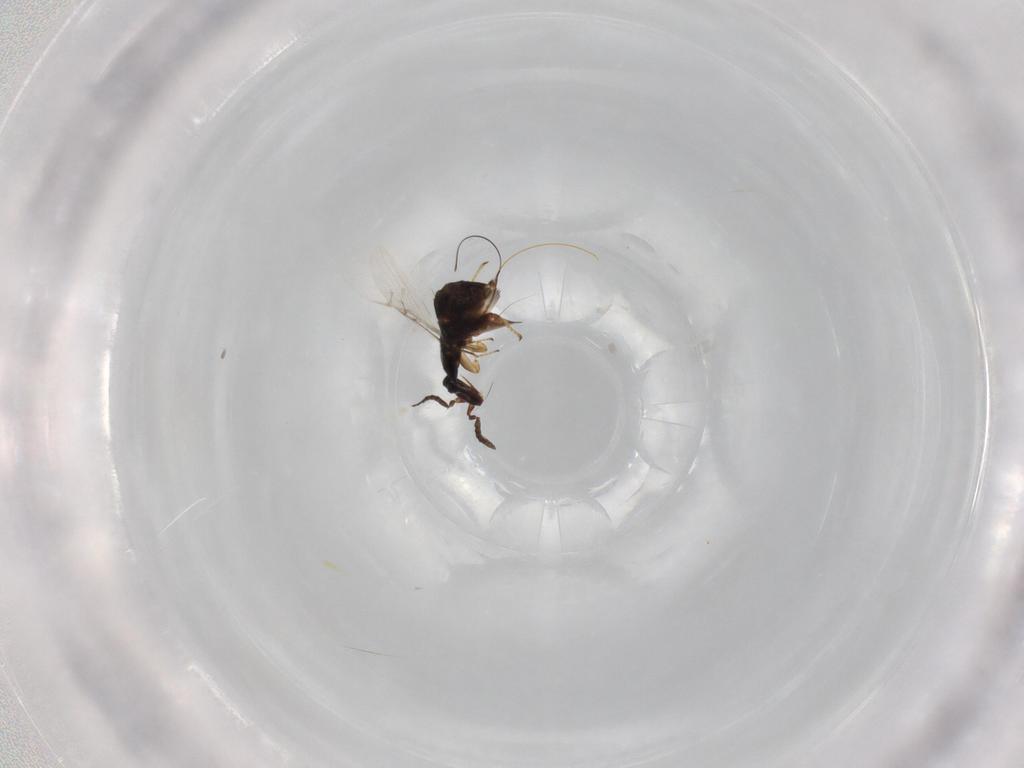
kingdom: Animalia
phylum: Arthropoda
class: Insecta
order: Hymenoptera
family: Agaonidae
